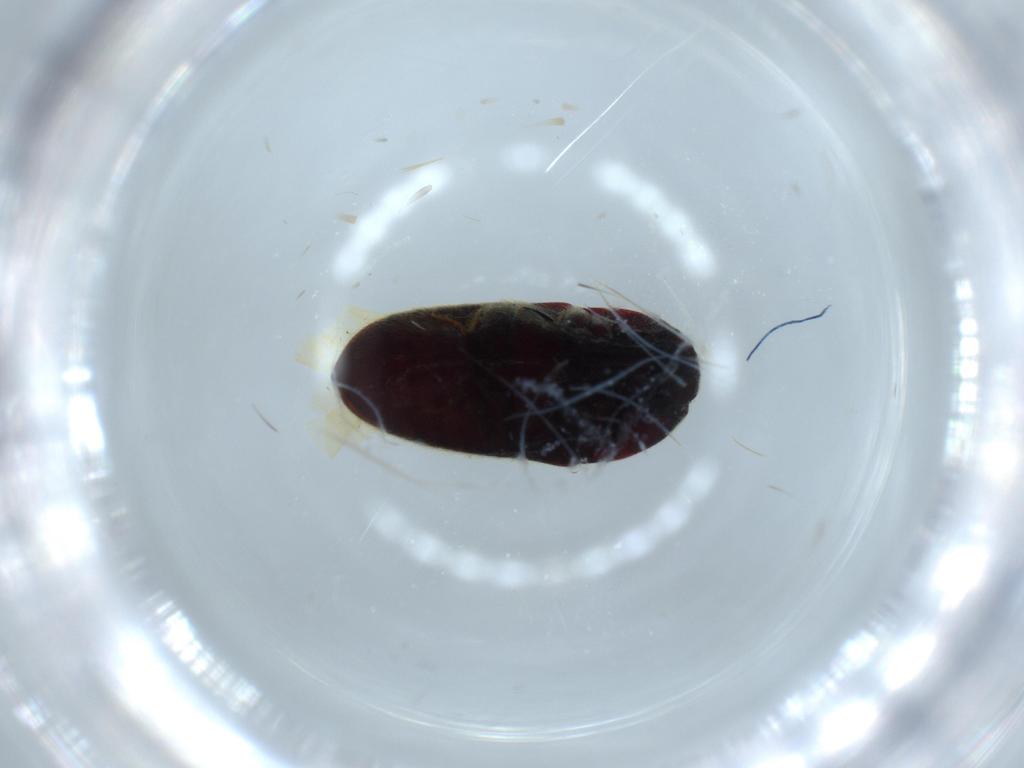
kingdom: Animalia
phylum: Arthropoda
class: Insecta
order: Coleoptera
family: Throscidae
